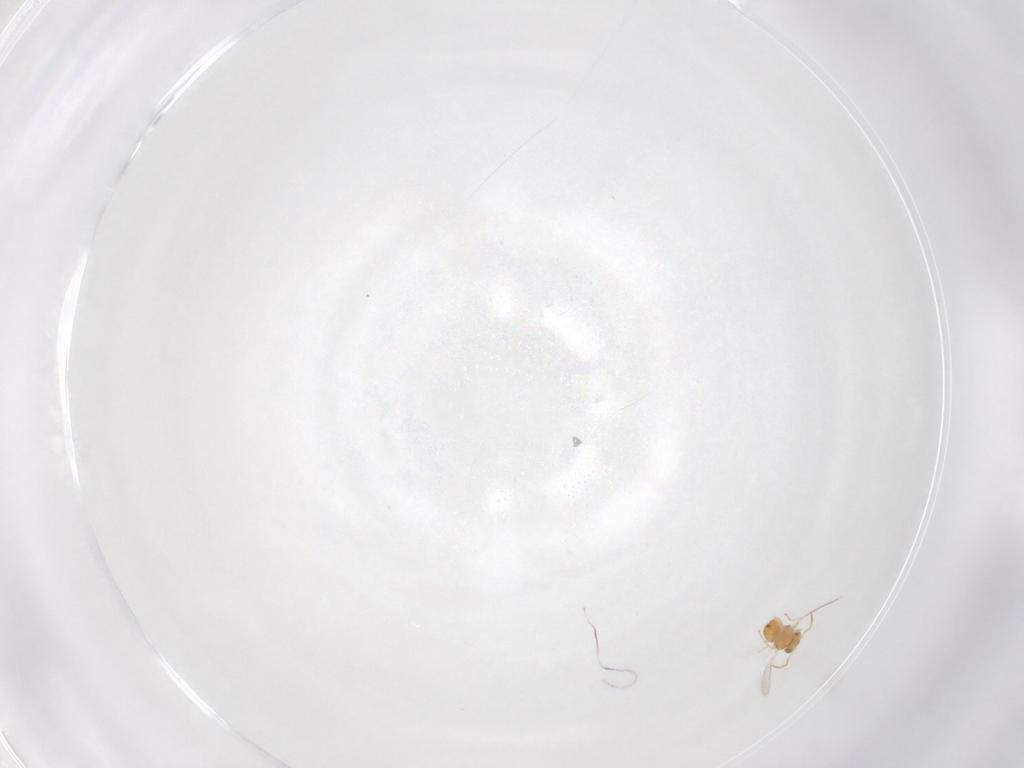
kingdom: Animalia
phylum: Arthropoda
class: Insecta
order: Hymenoptera
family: Aphelinidae
